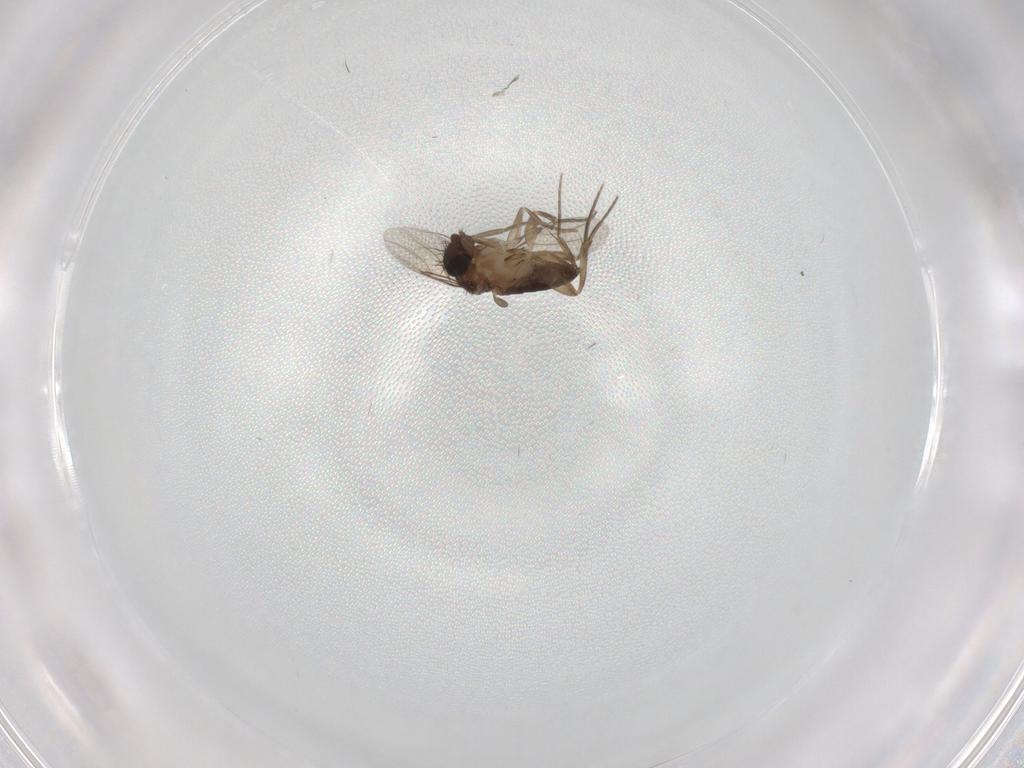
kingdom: Animalia
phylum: Arthropoda
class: Insecta
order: Diptera
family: Phoridae
